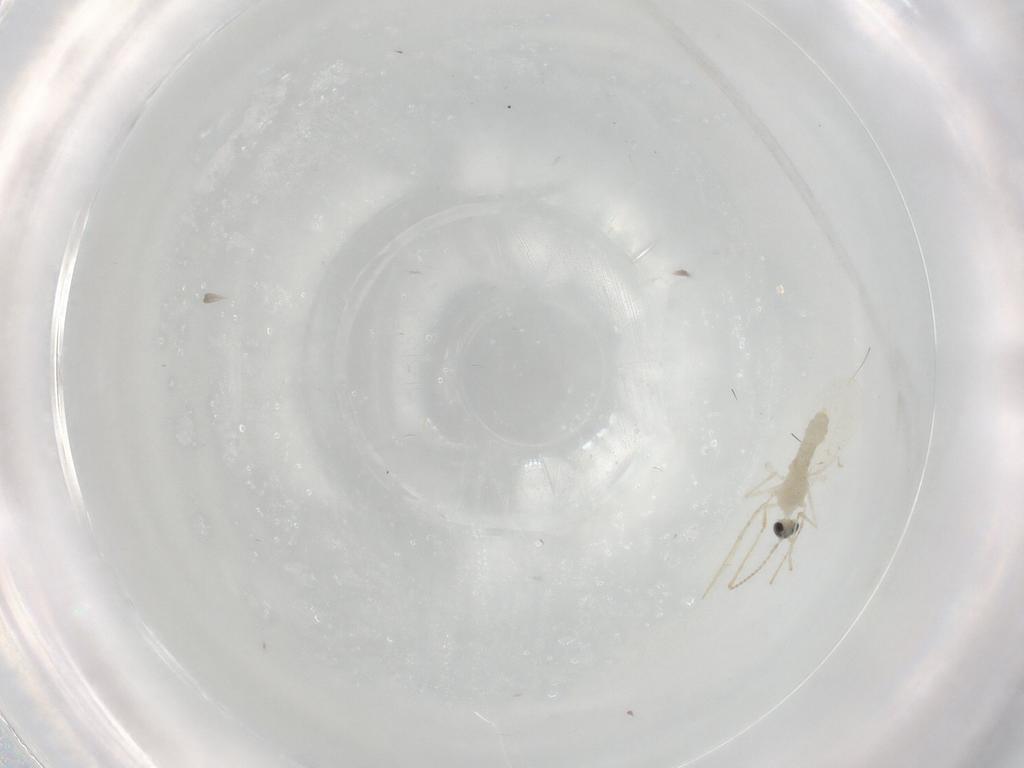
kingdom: Animalia
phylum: Arthropoda
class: Insecta
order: Diptera
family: Cecidomyiidae
